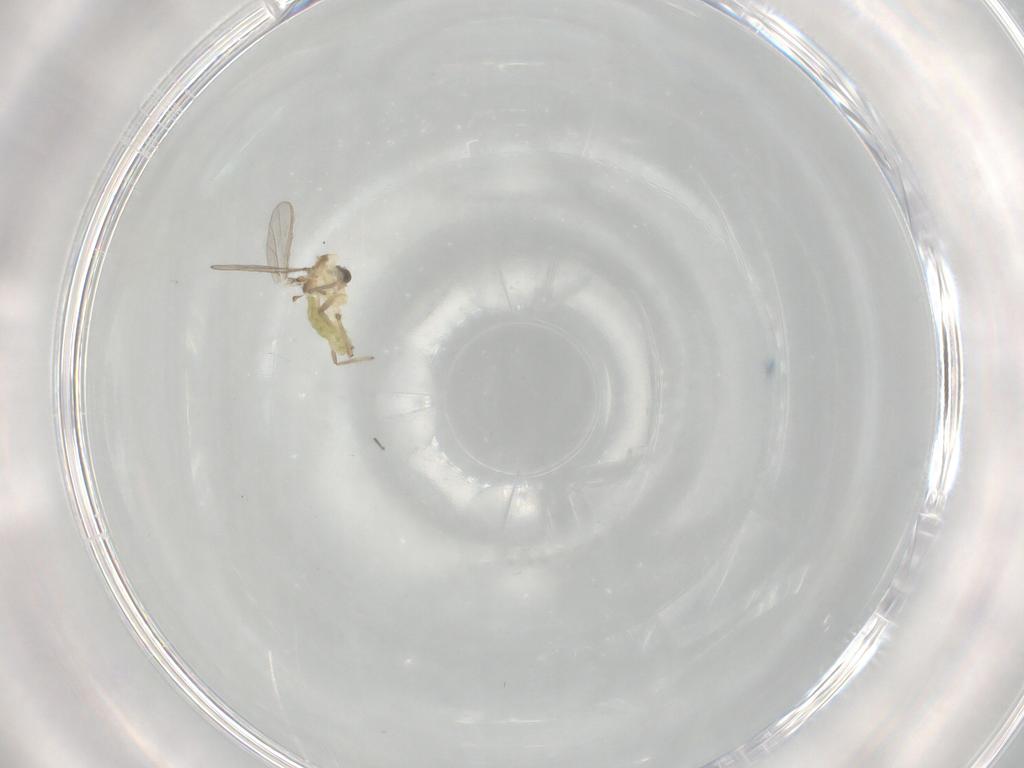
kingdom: Animalia
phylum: Arthropoda
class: Insecta
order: Diptera
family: Chironomidae
